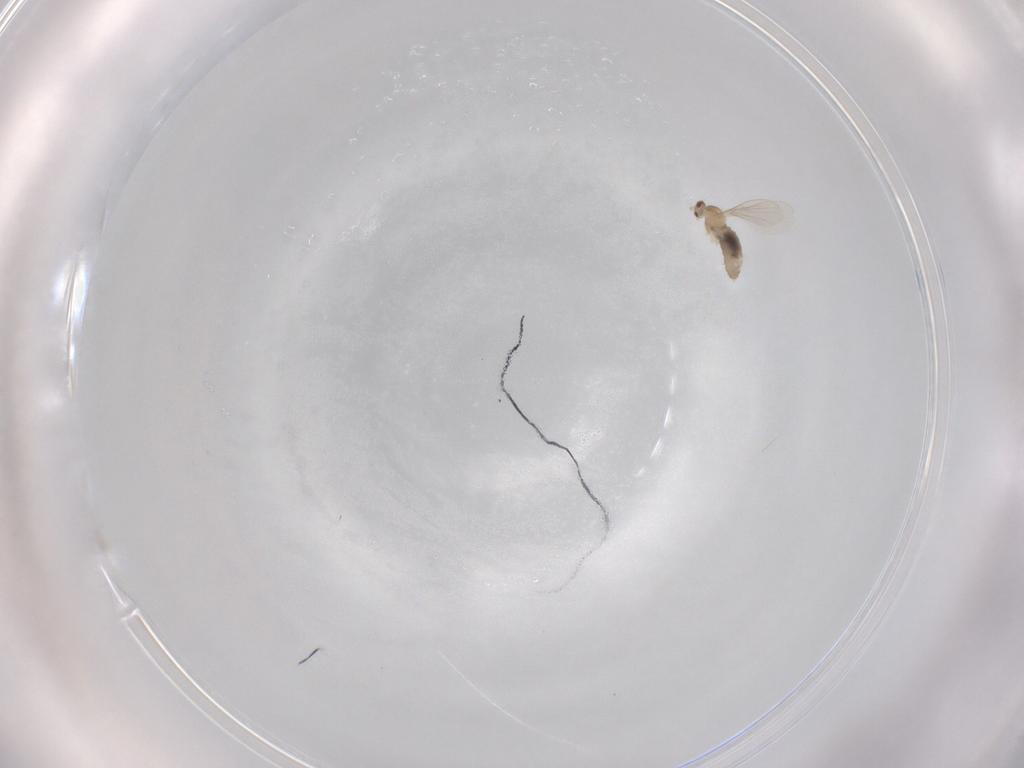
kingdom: Animalia
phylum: Arthropoda
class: Insecta
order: Diptera
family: Cecidomyiidae
